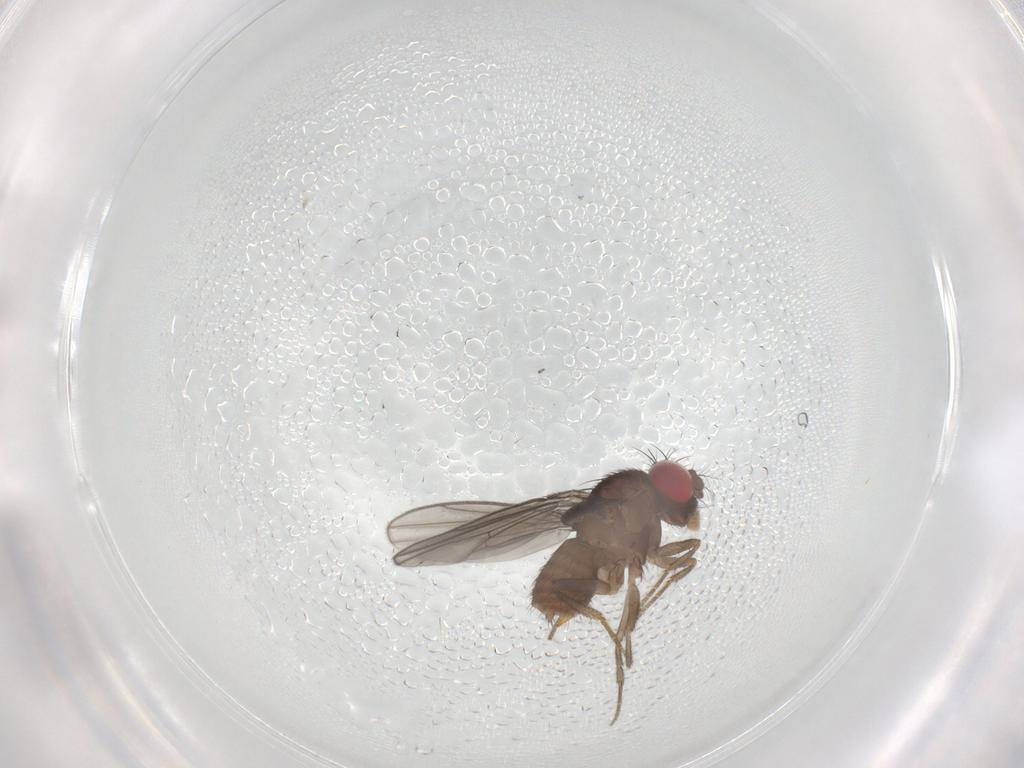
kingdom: Animalia
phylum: Arthropoda
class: Insecta
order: Diptera
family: Drosophilidae
